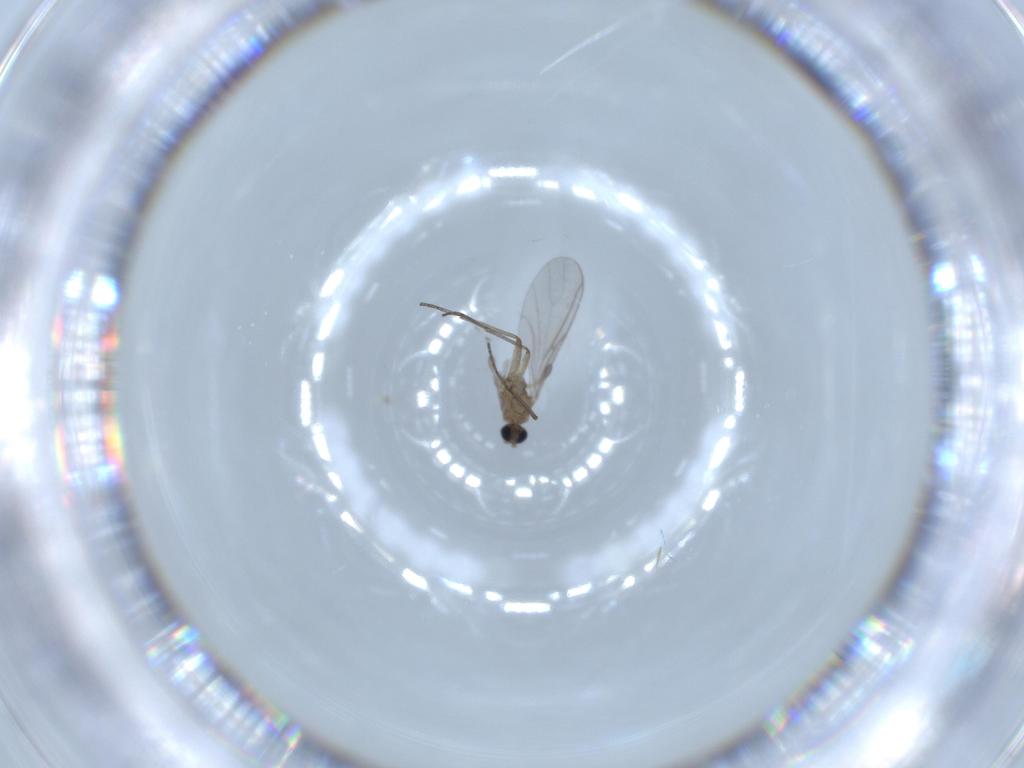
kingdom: Animalia
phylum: Arthropoda
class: Insecta
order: Diptera
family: Sciaridae
